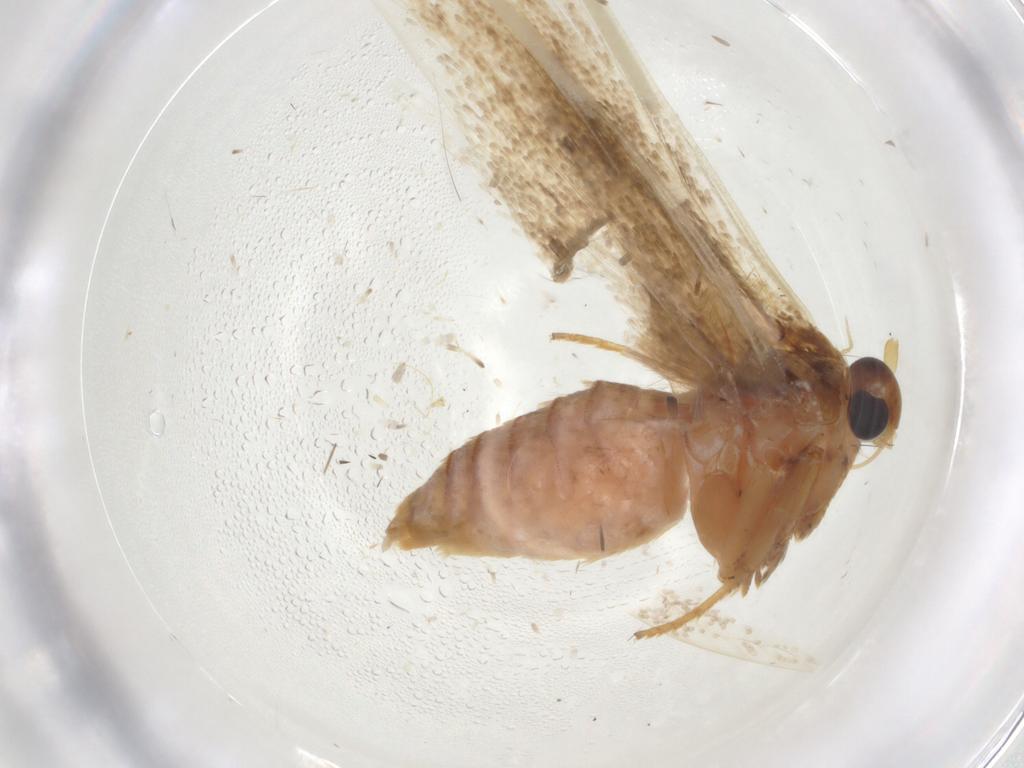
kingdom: Animalia
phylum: Arthropoda
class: Insecta
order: Lepidoptera
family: Blastobasidae
